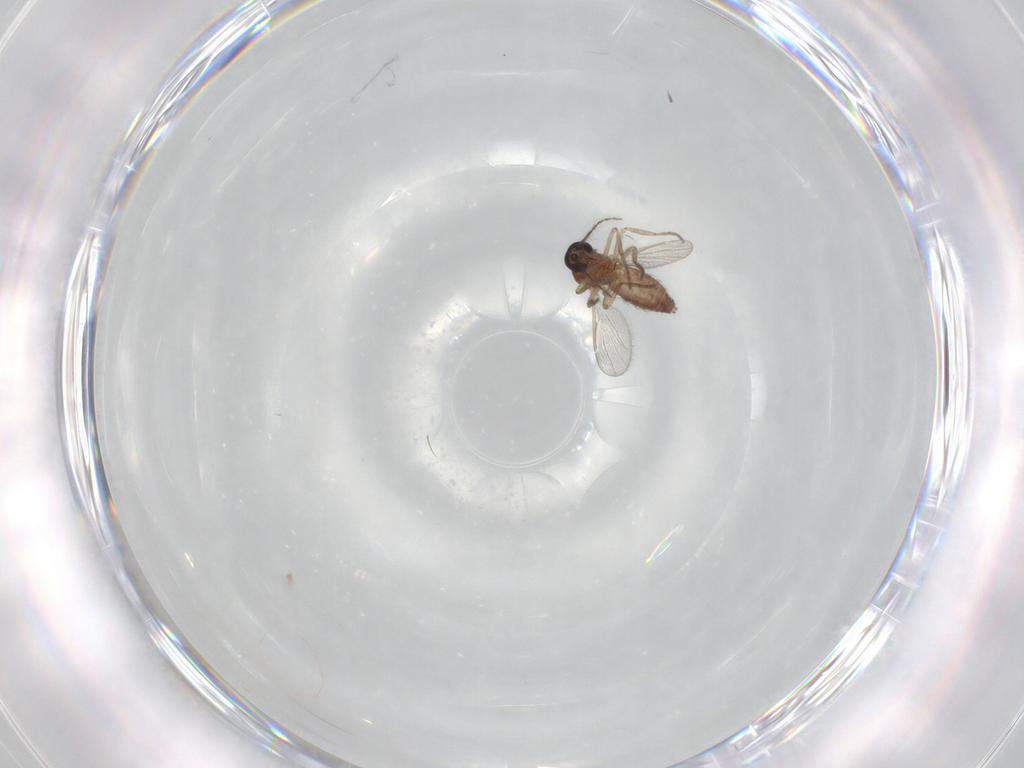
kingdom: Animalia
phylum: Arthropoda
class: Insecta
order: Diptera
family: Ceratopogonidae
